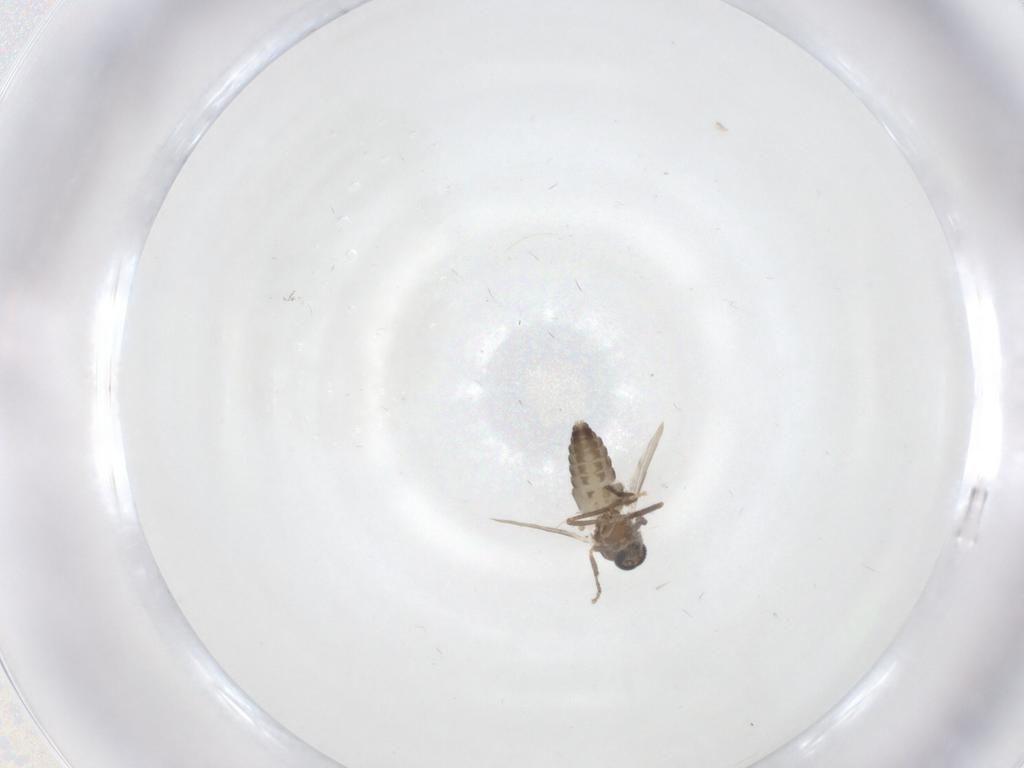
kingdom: Animalia
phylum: Arthropoda
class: Insecta
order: Diptera
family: Ceratopogonidae
